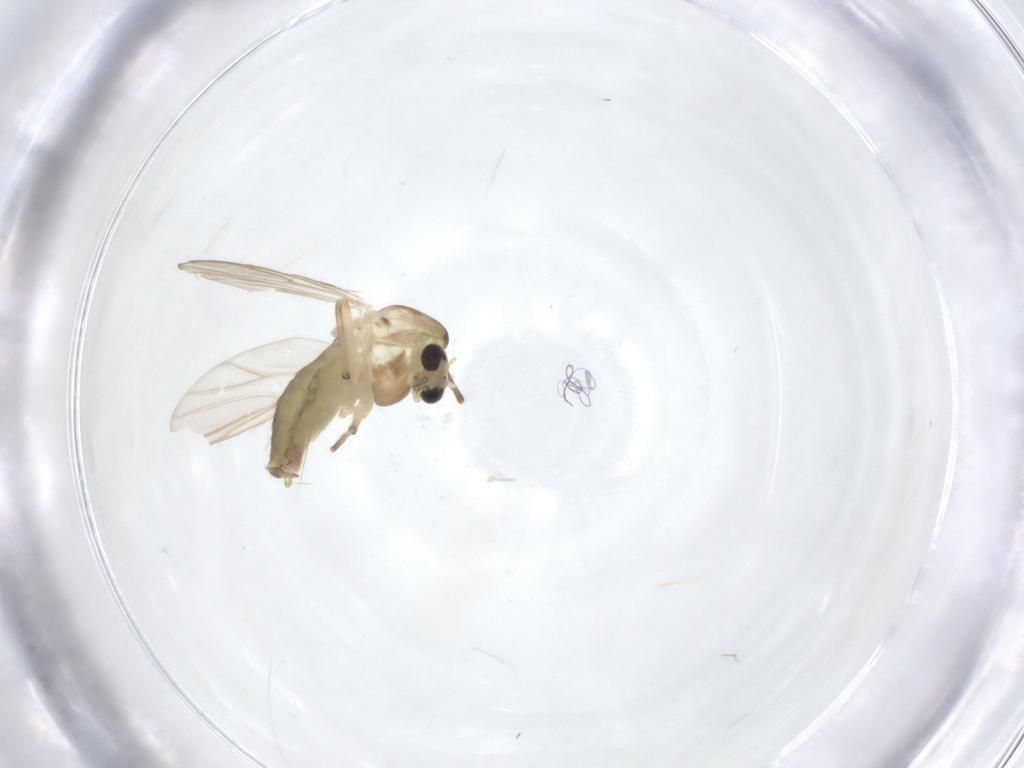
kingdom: Animalia
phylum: Arthropoda
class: Insecta
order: Diptera
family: Chironomidae
